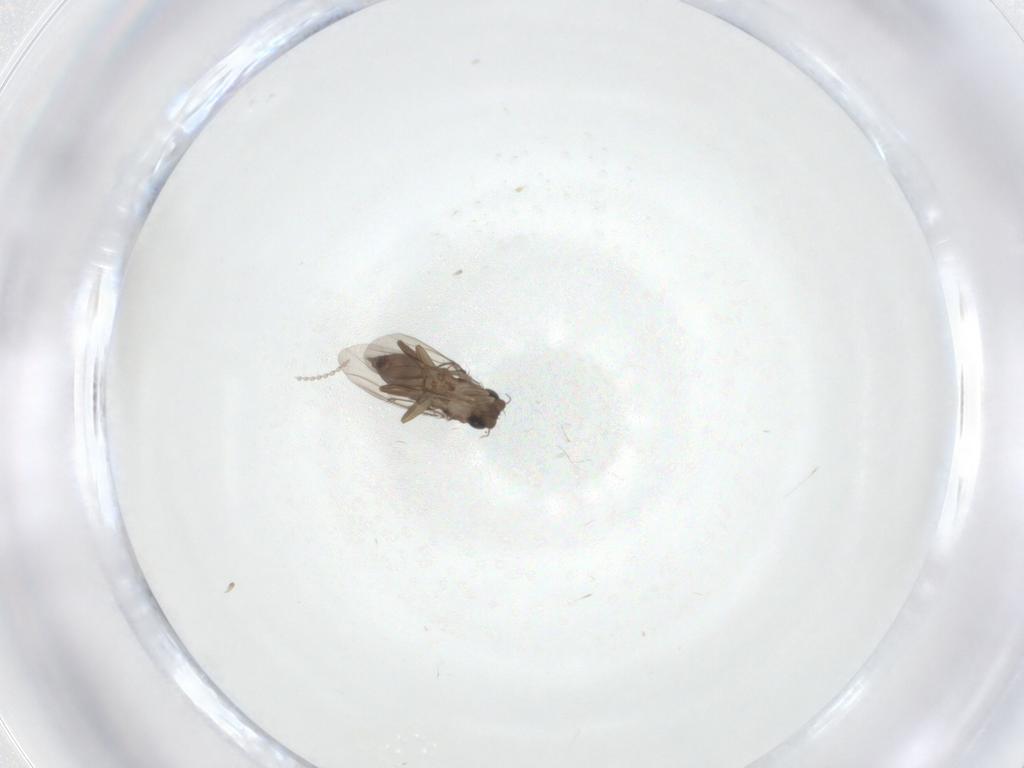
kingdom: Animalia
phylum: Arthropoda
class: Insecta
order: Diptera
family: Phoridae
